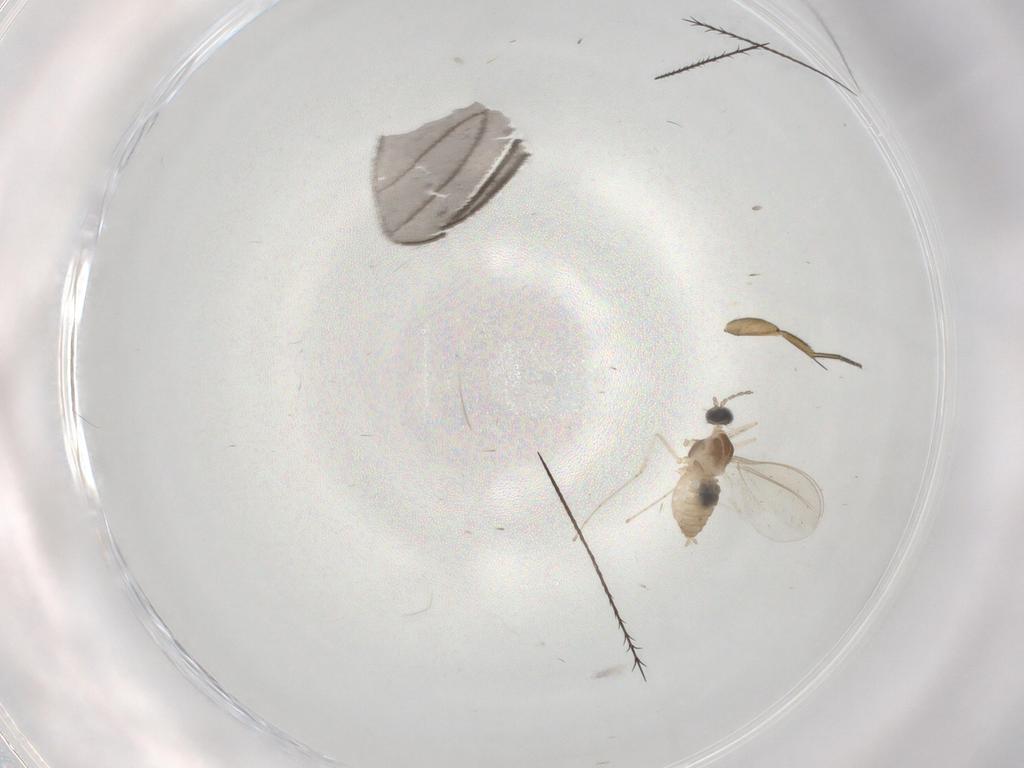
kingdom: Animalia
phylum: Arthropoda
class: Insecta
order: Diptera
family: Cecidomyiidae
